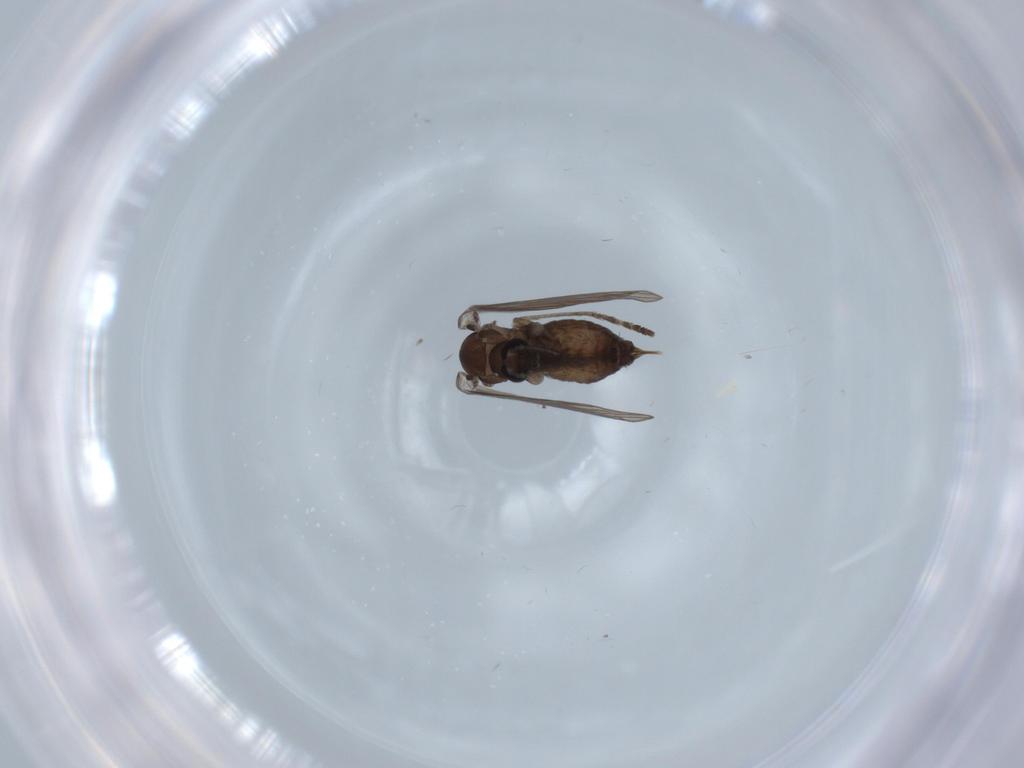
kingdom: Animalia
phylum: Arthropoda
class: Insecta
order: Diptera
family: Psychodidae
